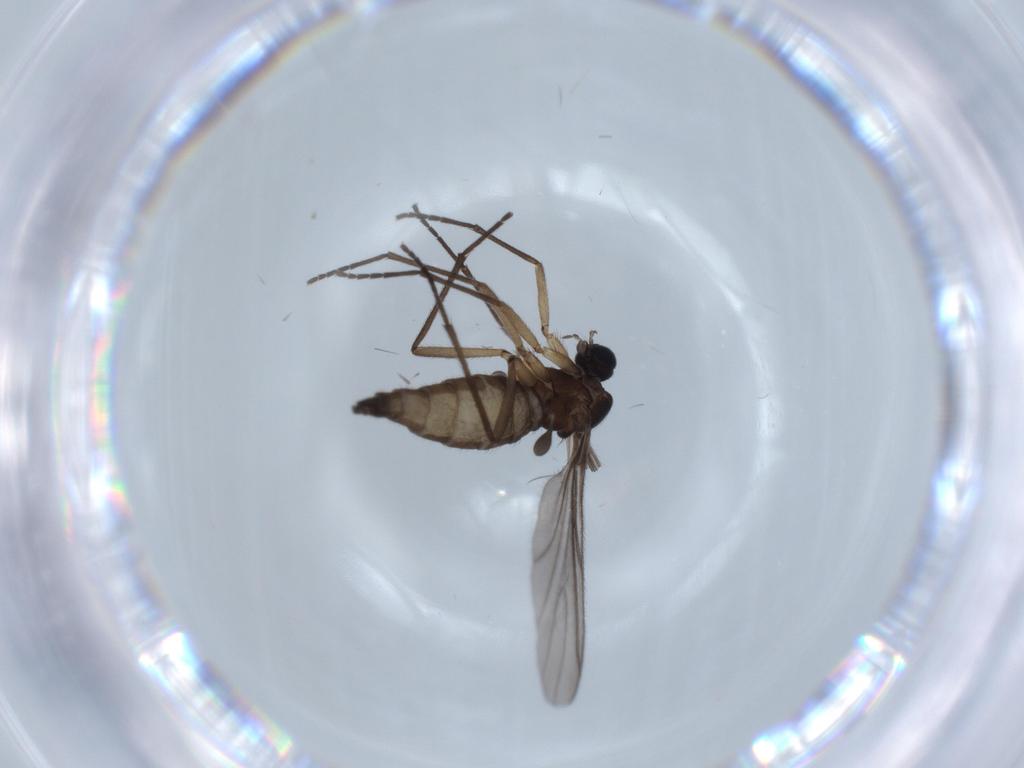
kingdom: Animalia
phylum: Arthropoda
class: Insecta
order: Diptera
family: Sciaridae
